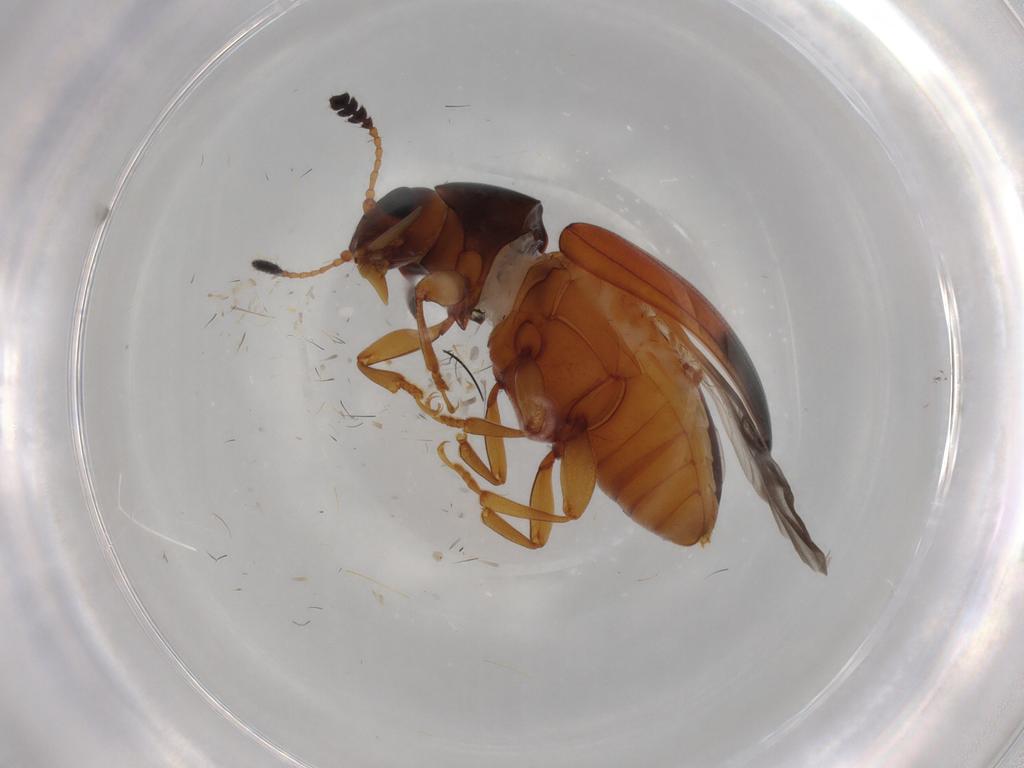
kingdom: Animalia
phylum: Arthropoda
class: Insecta
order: Coleoptera
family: Erotylidae
